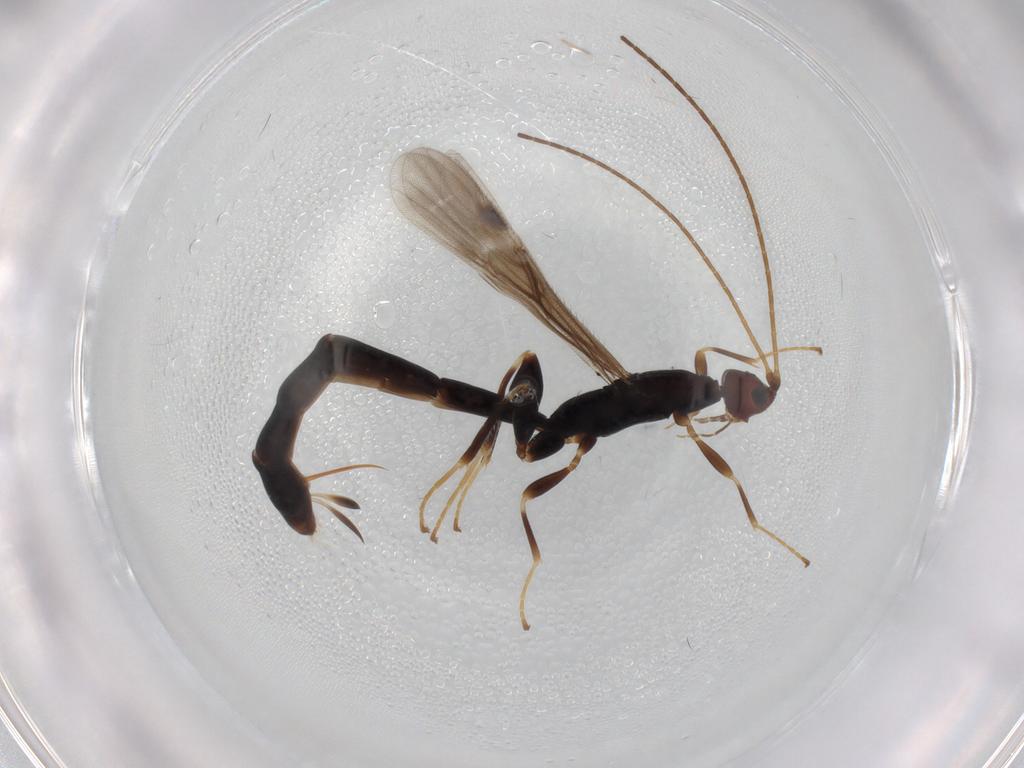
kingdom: Animalia
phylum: Arthropoda
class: Insecta
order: Hymenoptera
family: Braconidae
